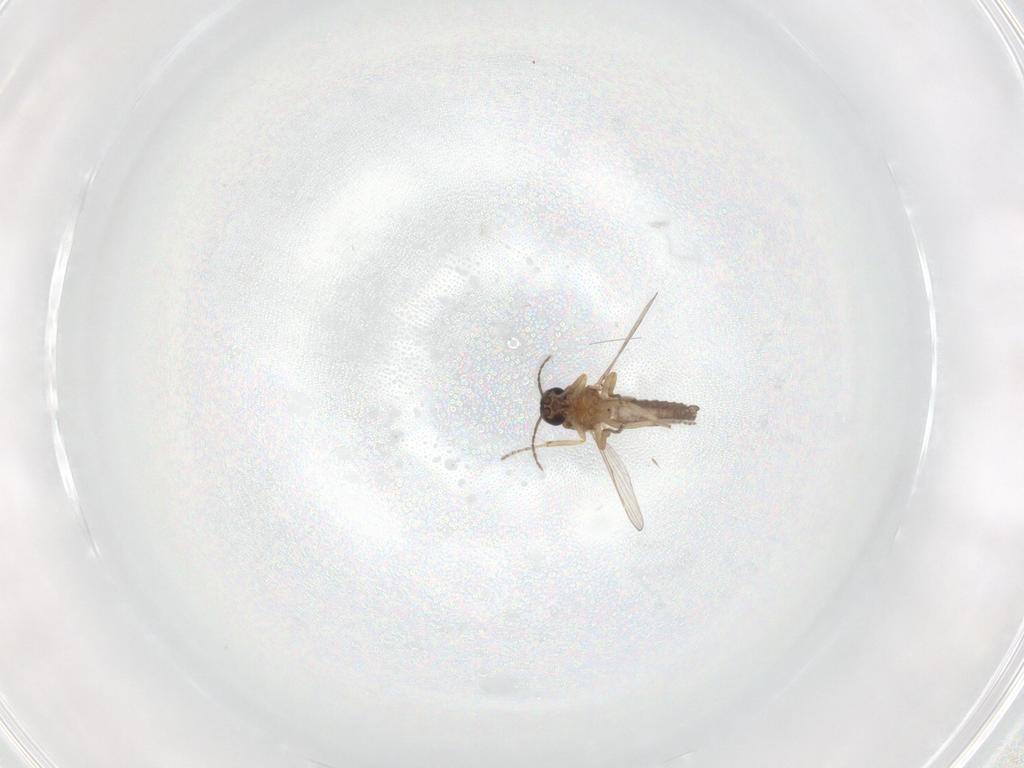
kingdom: Animalia
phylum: Arthropoda
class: Insecta
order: Diptera
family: Ceratopogonidae
